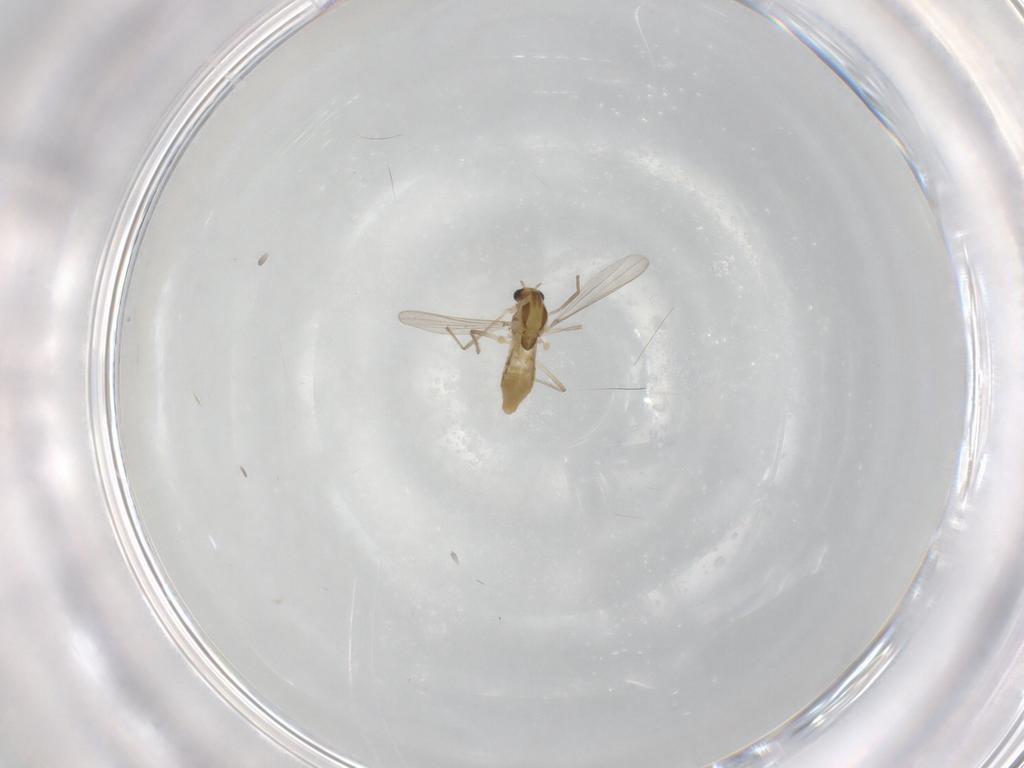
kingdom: Animalia
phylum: Arthropoda
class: Insecta
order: Diptera
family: Chironomidae
